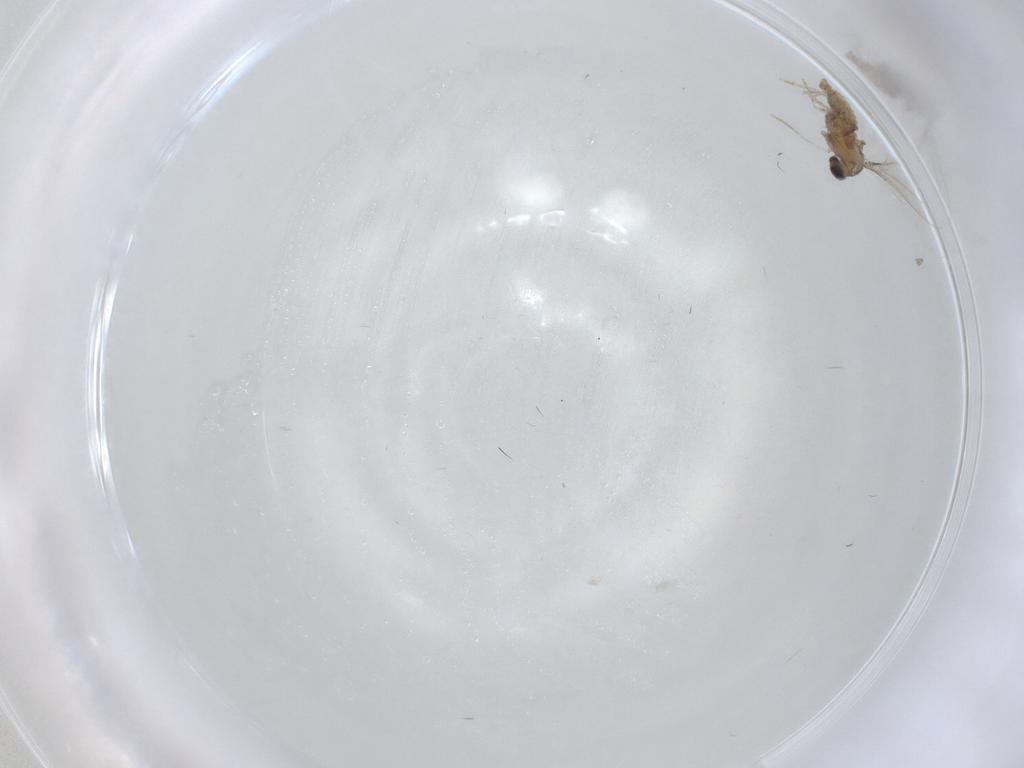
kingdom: Animalia
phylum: Arthropoda
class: Insecta
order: Diptera
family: Cecidomyiidae
